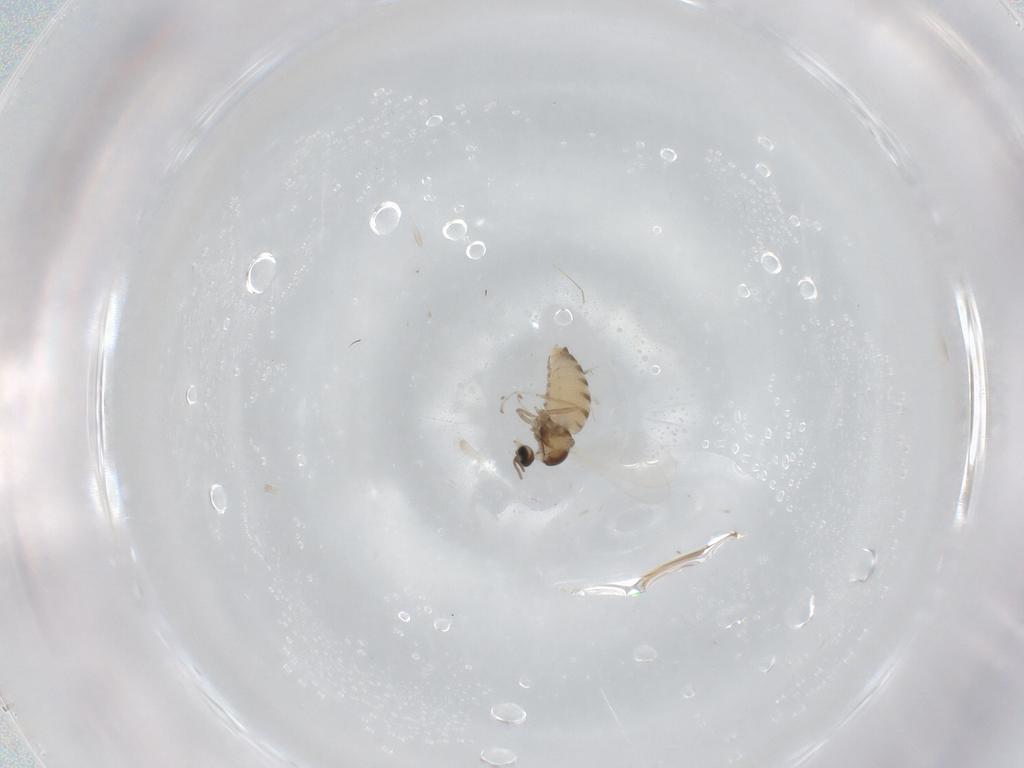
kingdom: Animalia
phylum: Arthropoda
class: Insecta
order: Diptera
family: Cecidomyiidae
